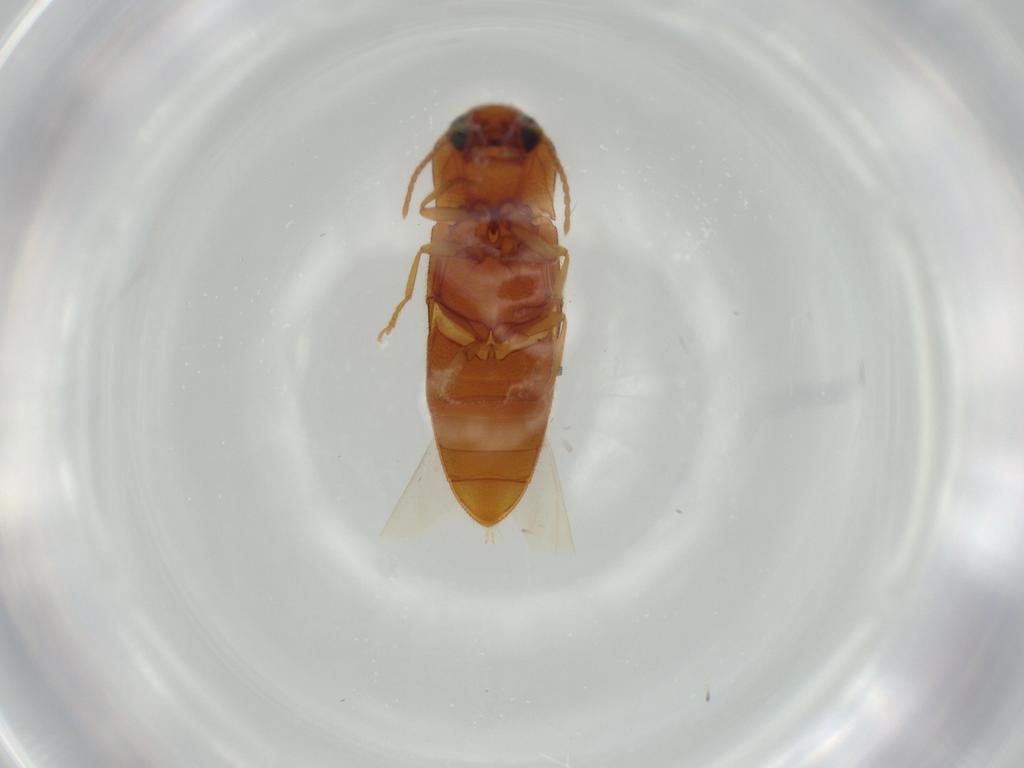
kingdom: Animalia
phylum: Arthropoda
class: Insecta
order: Coleoptera
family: Elateridae
